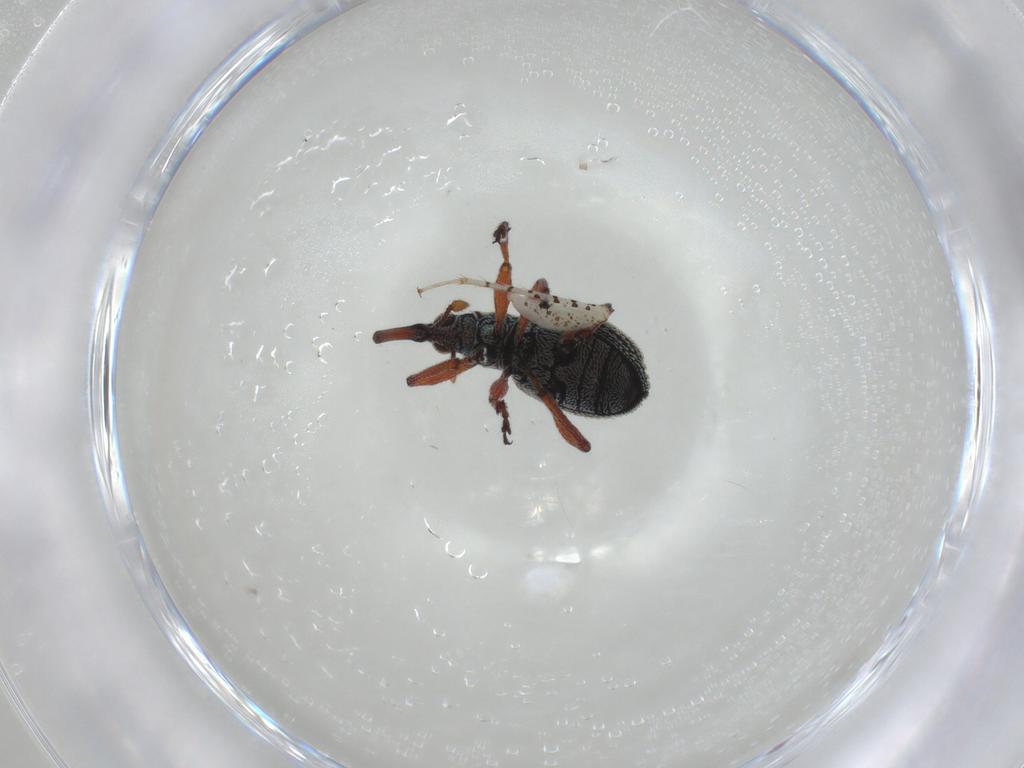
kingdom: Animalia
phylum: Arthropoda
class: Insecta
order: Coleoptera
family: Brentidae
